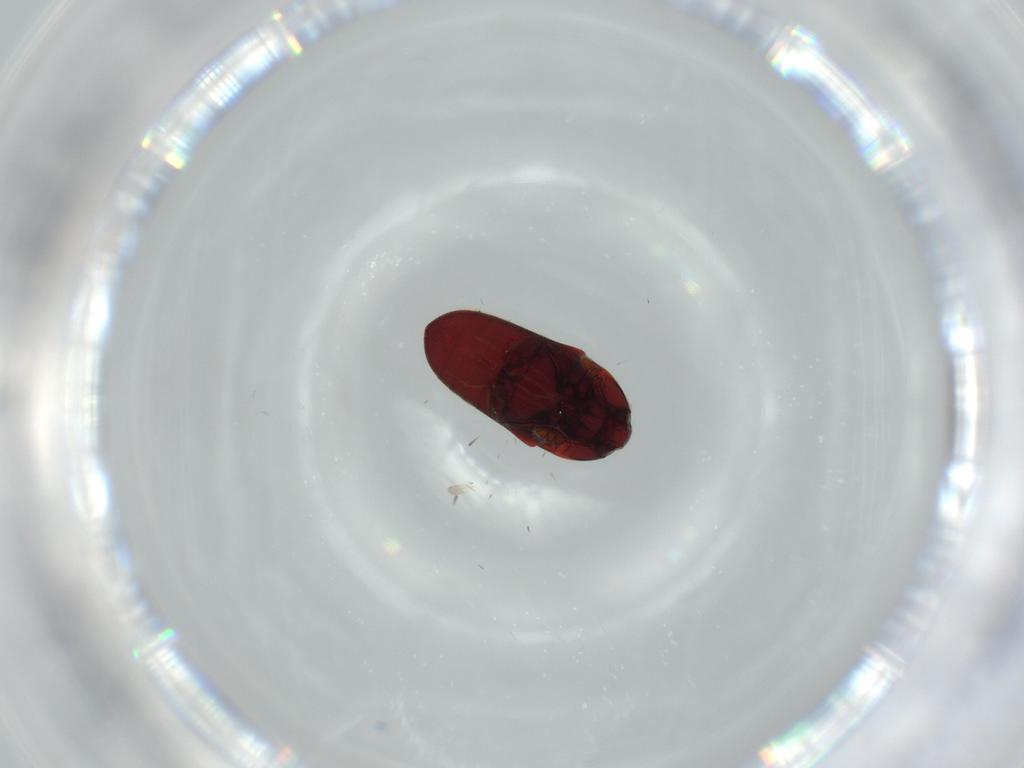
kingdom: Animalia
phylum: Arthropoda
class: Insecta
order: Coleoptera
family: Throscidae
